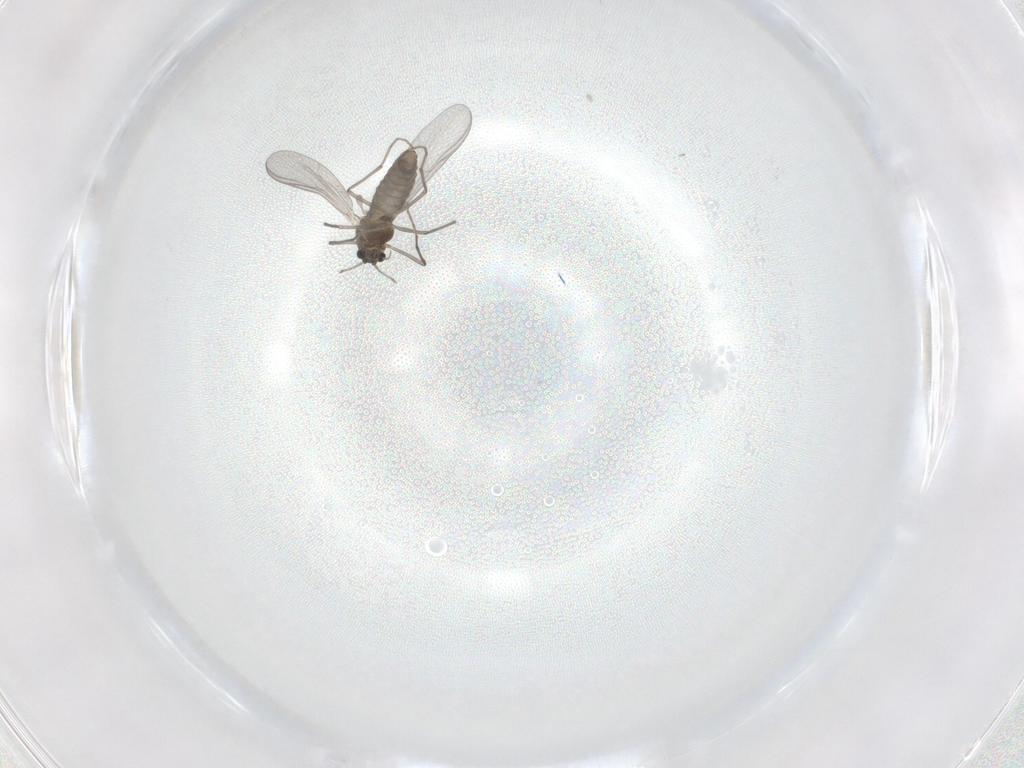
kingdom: Animalia
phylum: Arthropoda
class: Insecta
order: Diptera
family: Chironomidae
